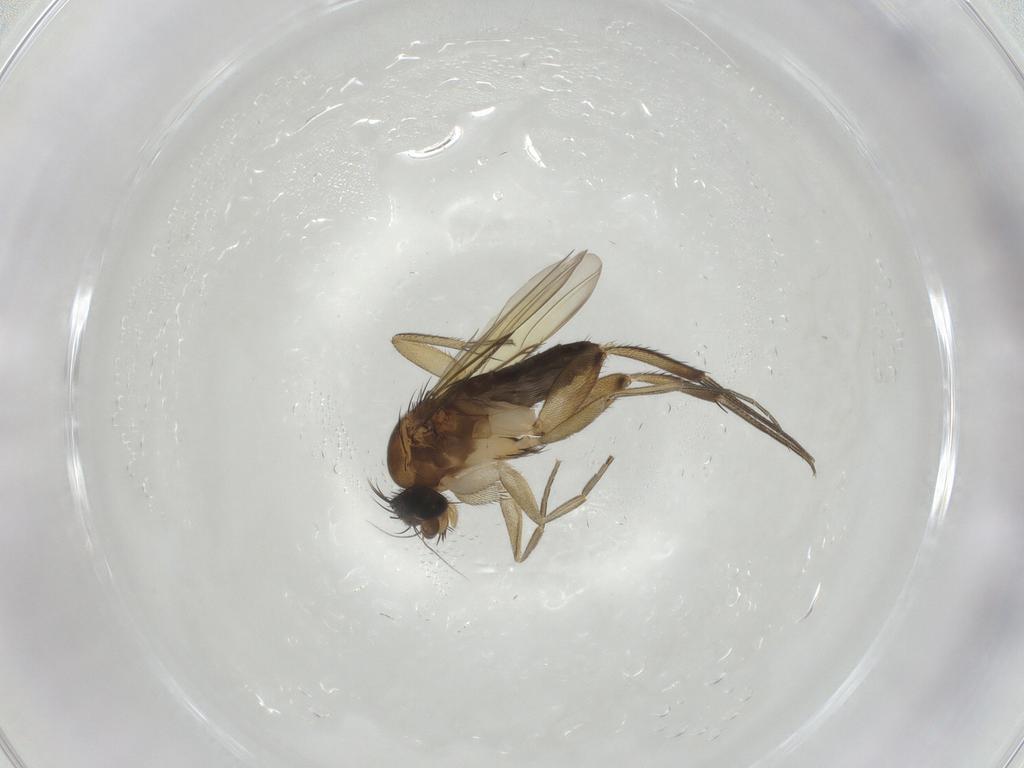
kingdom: Animalia
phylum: Arthropoda
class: Insecta
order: Diptera
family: Phoridae
